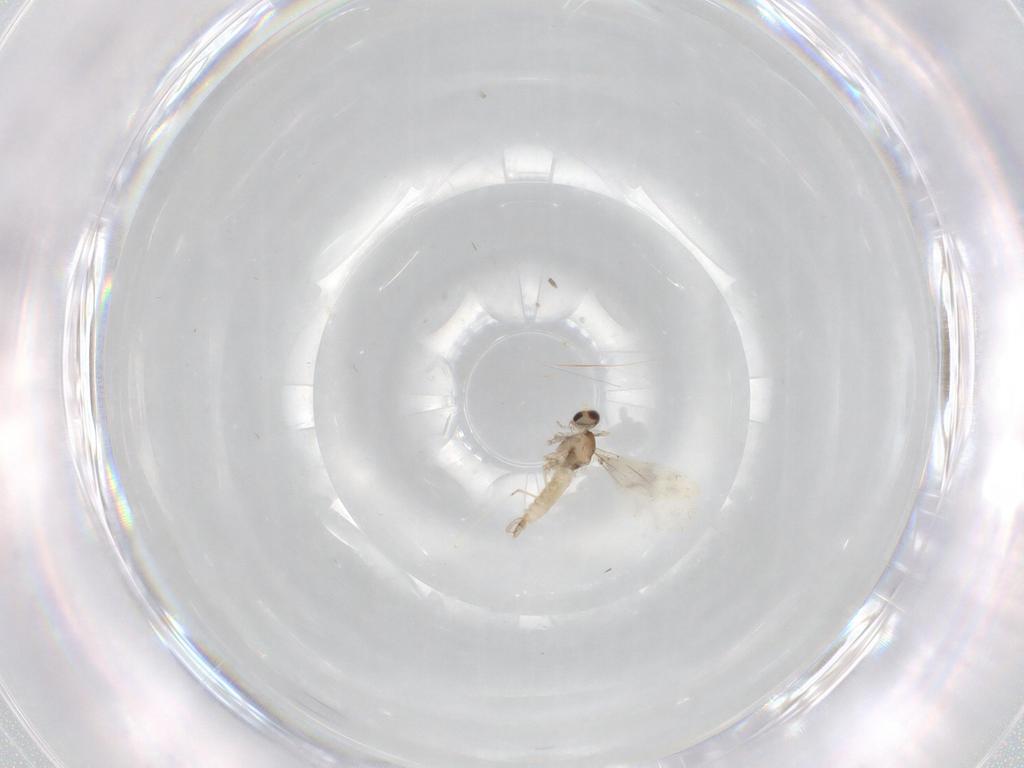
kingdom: Animalia
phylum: Arthropoda
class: Insecta
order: Diptera
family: Cecidomyiidae
